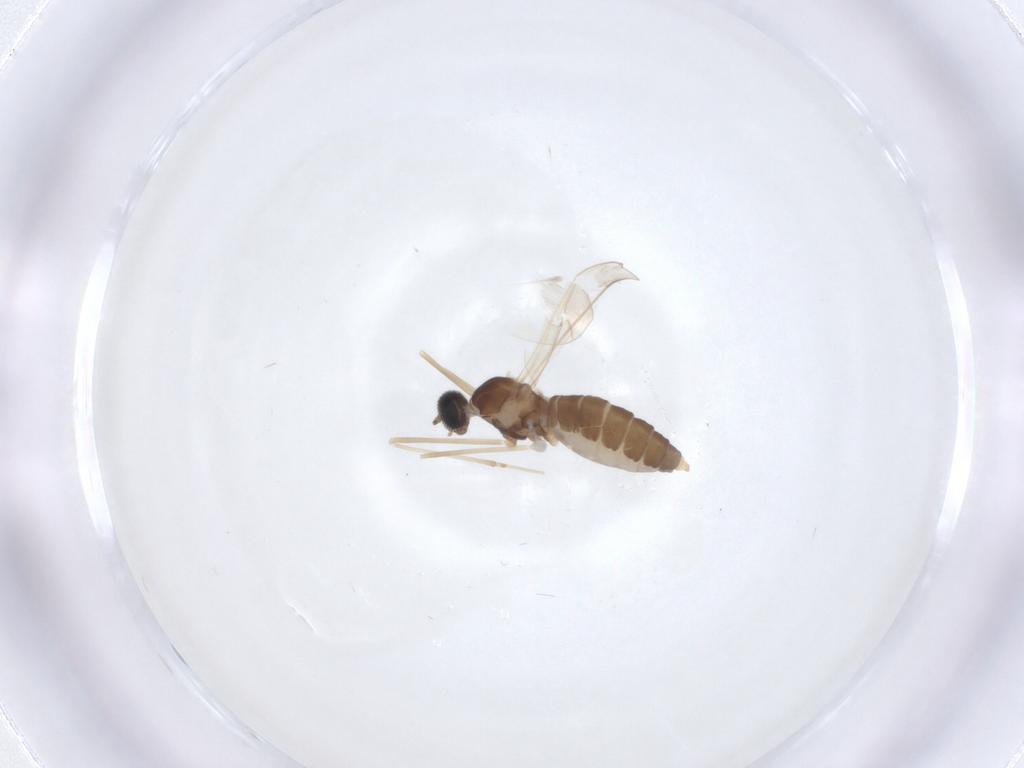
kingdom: Animalia
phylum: Arthropoda
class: Insecta
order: Diptera
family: Cecidomyiidae
